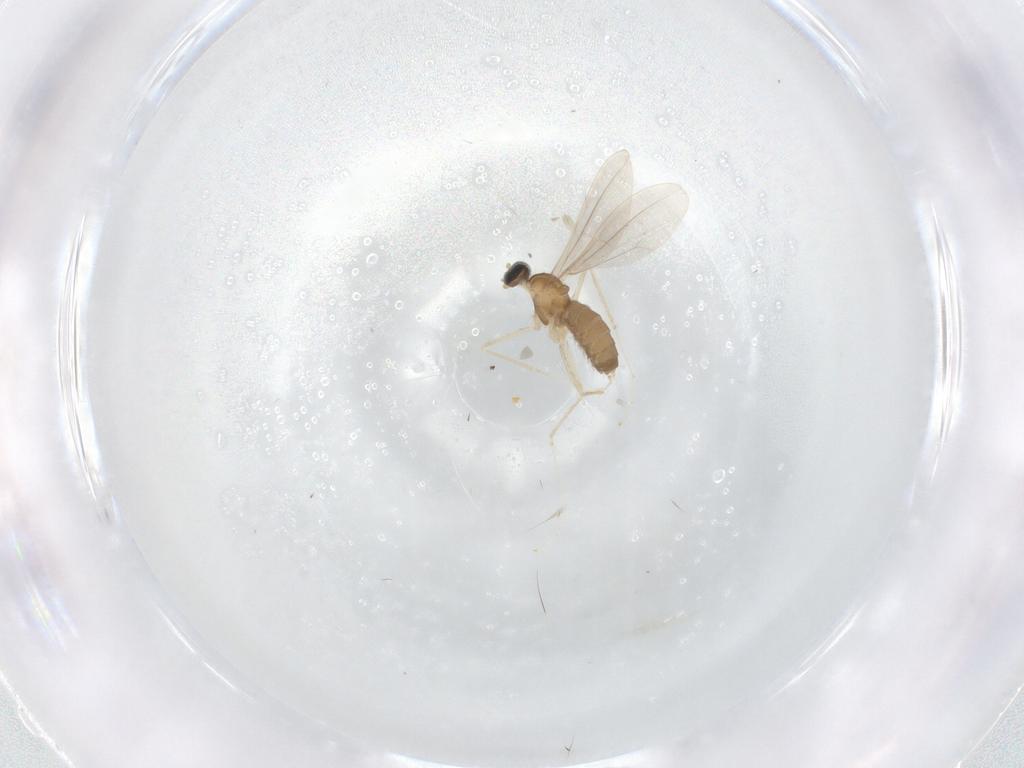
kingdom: Animalia
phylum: Arthropoda
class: Insecta
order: Diptera
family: Cecidomyiidae
